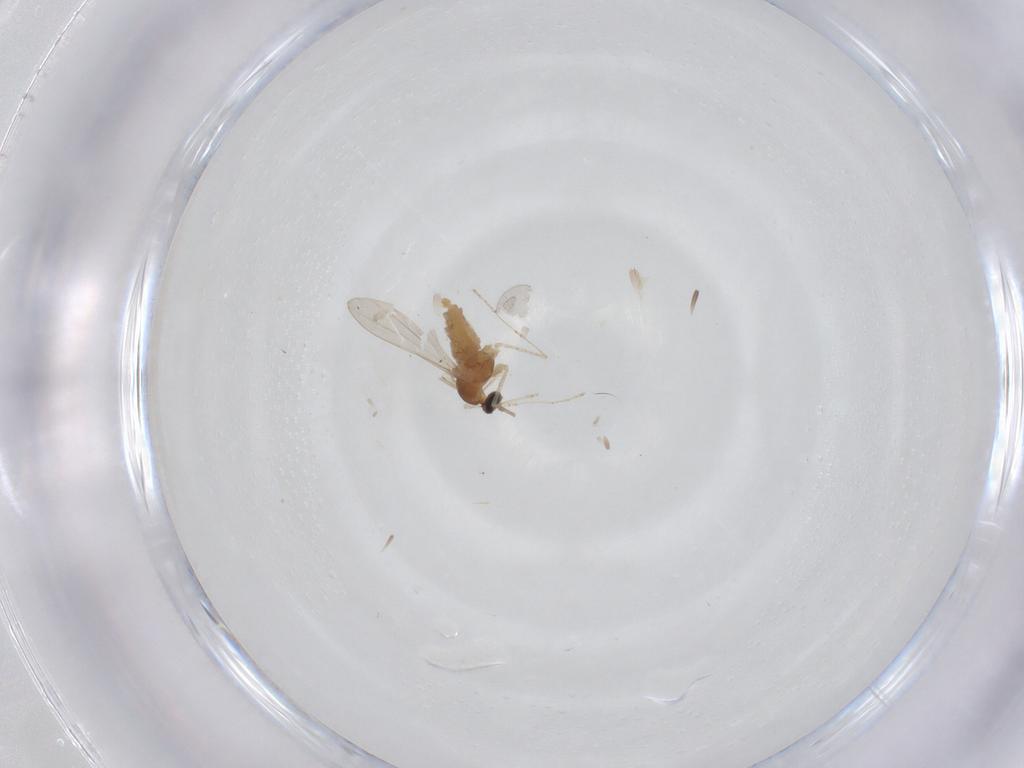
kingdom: Animalia
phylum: Arthropoda
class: Insecta
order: Diptera
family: Cecidomyiidae
